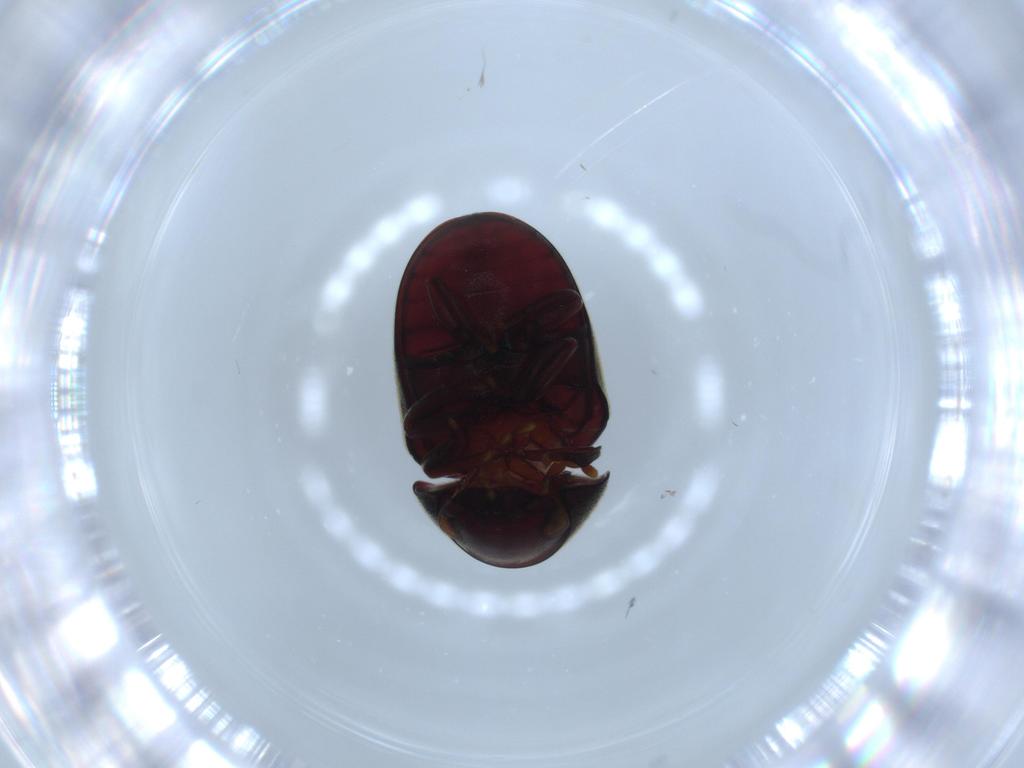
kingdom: Animalia
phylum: Arthropoda
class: Insecta
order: Coleoptera
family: Ptinidae
